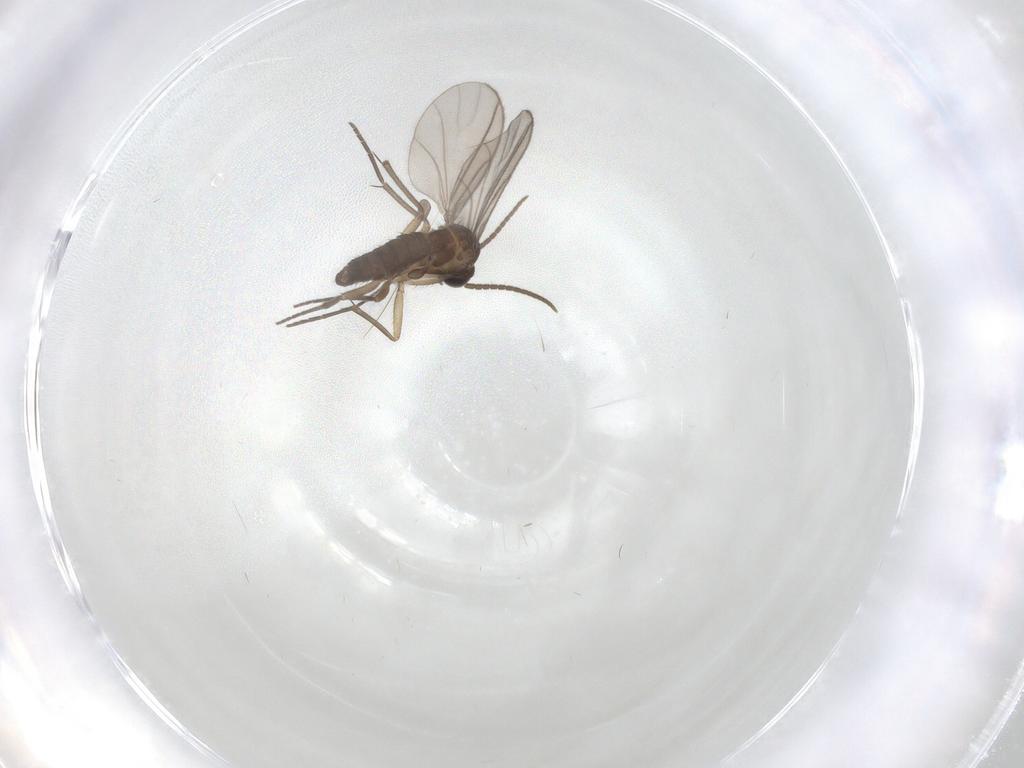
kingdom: Animalia
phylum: Arthropoda
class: Insecta
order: Diptera
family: Sciaridae
